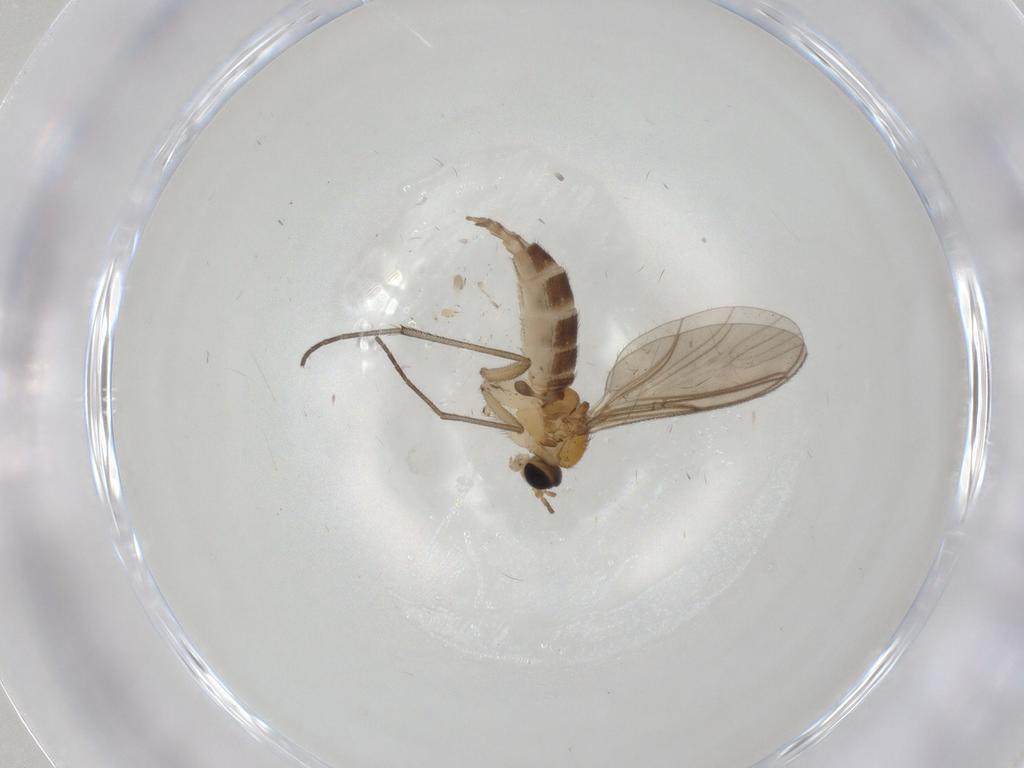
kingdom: Animalia
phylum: Arthropoda
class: Insecta
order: Diptera
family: Sciaridae
